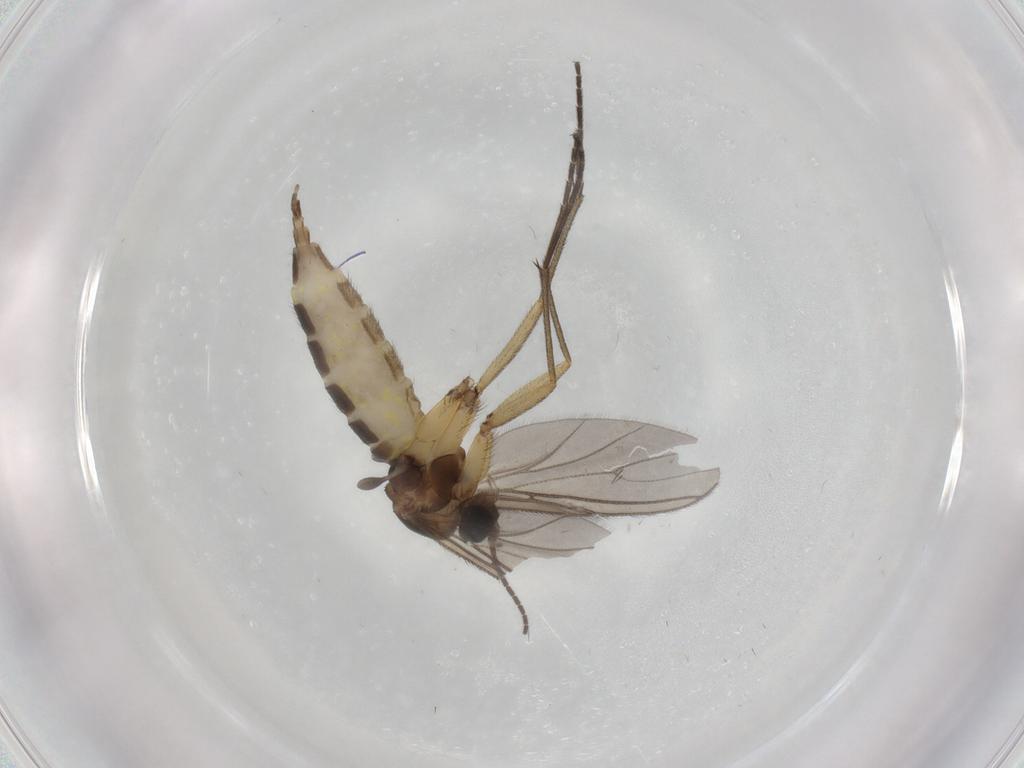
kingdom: Animalia
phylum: Arthropoda
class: Insecta
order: Diptera
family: Sciaridae
